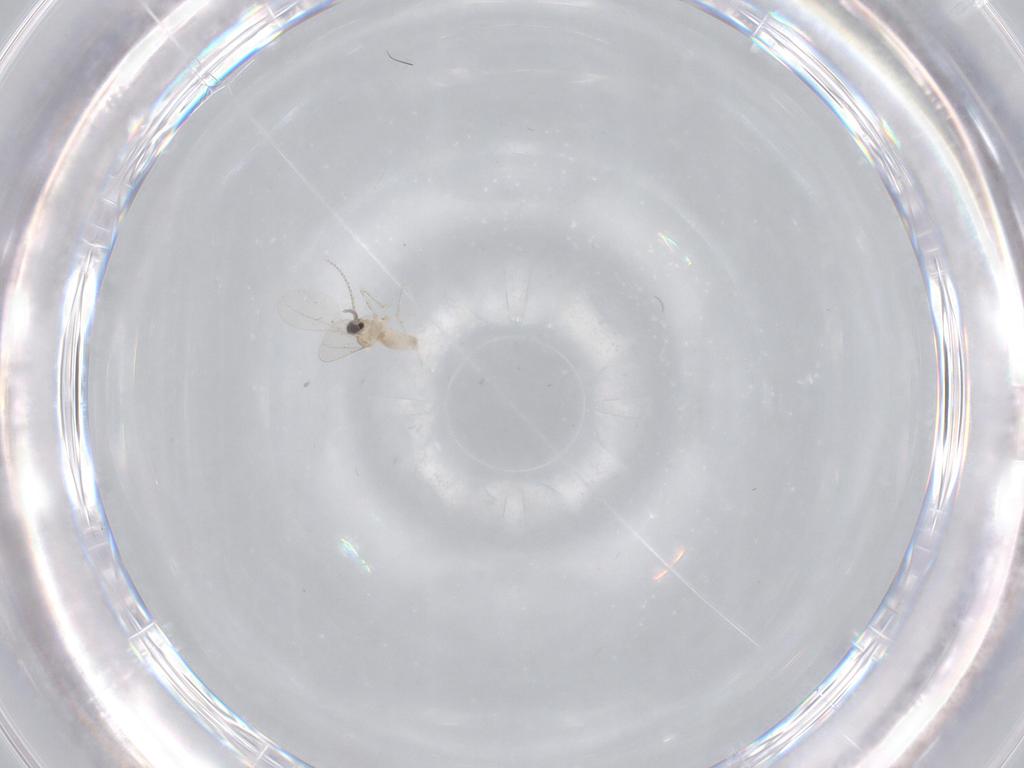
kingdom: Animalia
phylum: Arthropoda
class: Insecta
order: Diptera
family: Cecidomyiidae
